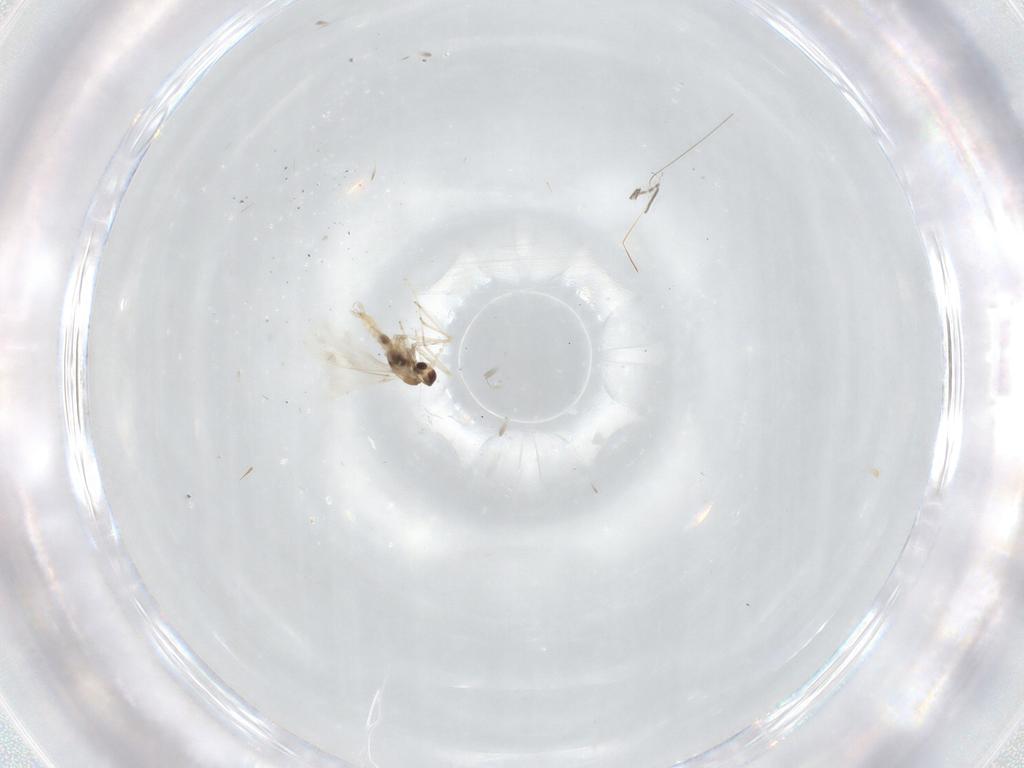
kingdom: Animalia
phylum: Arthropoda
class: Insecta
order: Diptera
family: Cecidomyiidae
